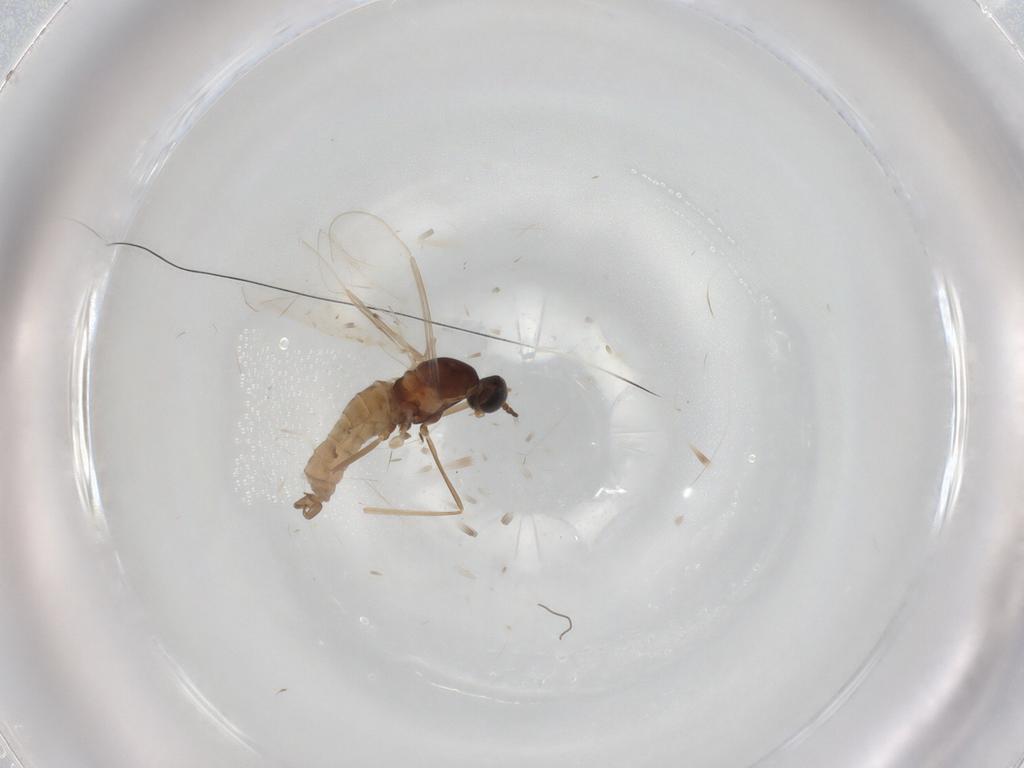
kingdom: Animalia
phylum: Arthropoda
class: Insecta
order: Diptera
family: Cecidomyiidae
